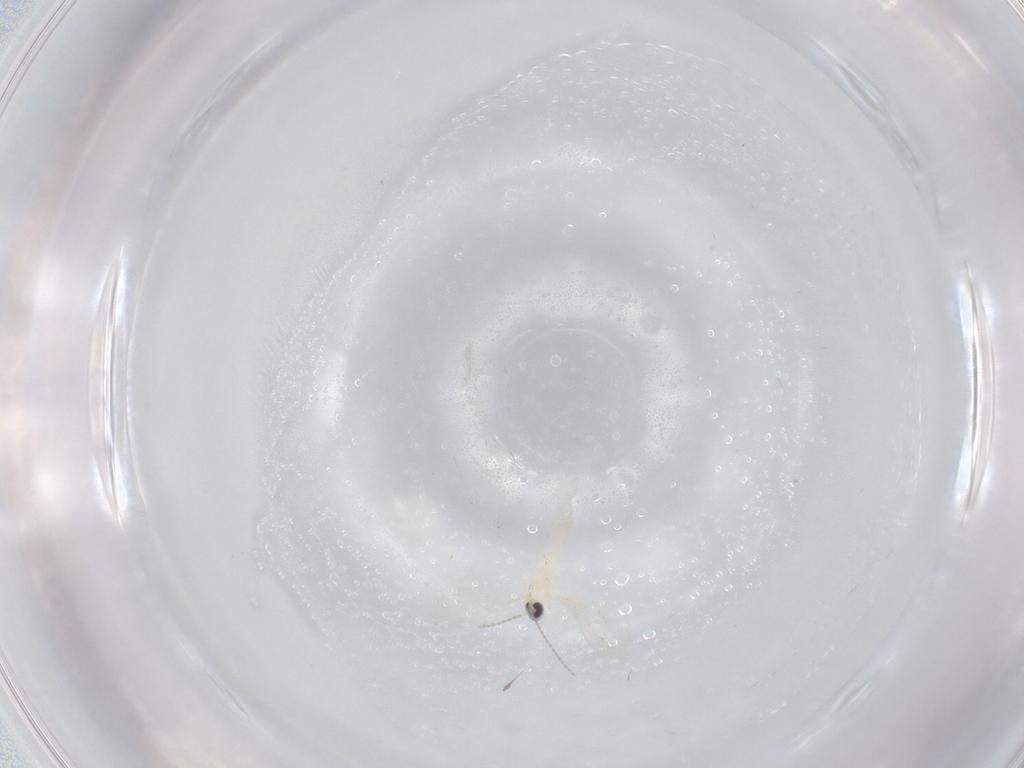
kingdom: Animalia
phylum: Arthropoda
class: Insecta
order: Diptera
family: Cecidomyiidae
